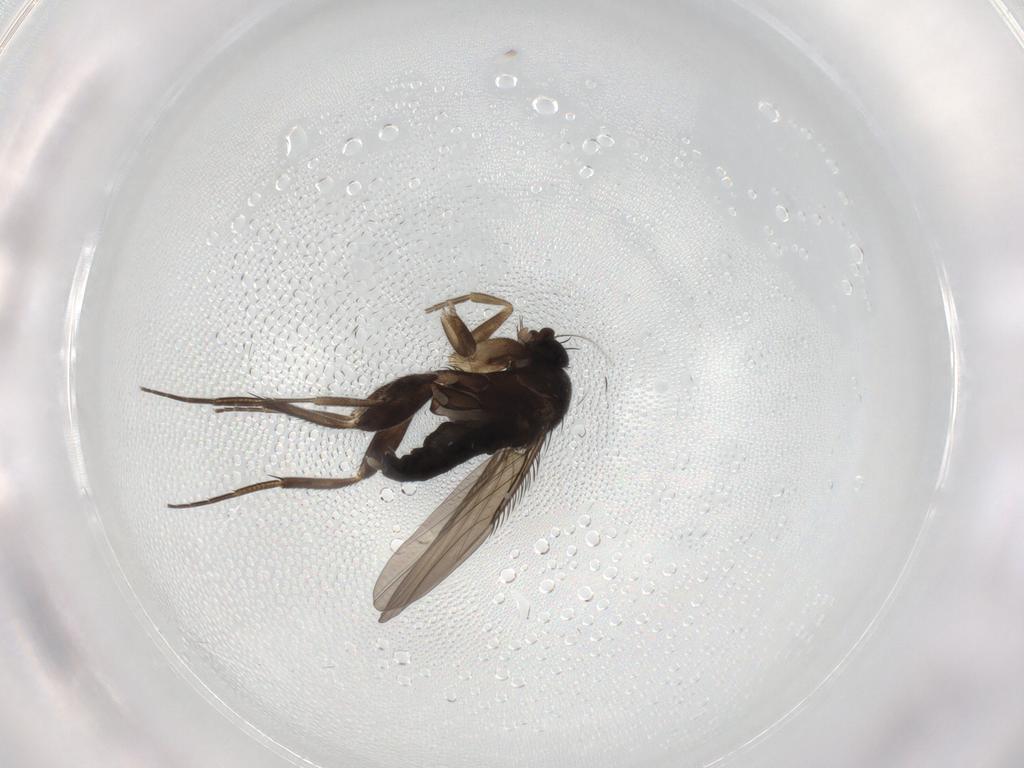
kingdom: Animalia
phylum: Arthropoda
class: Insecta
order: Diptera
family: Phoridae
